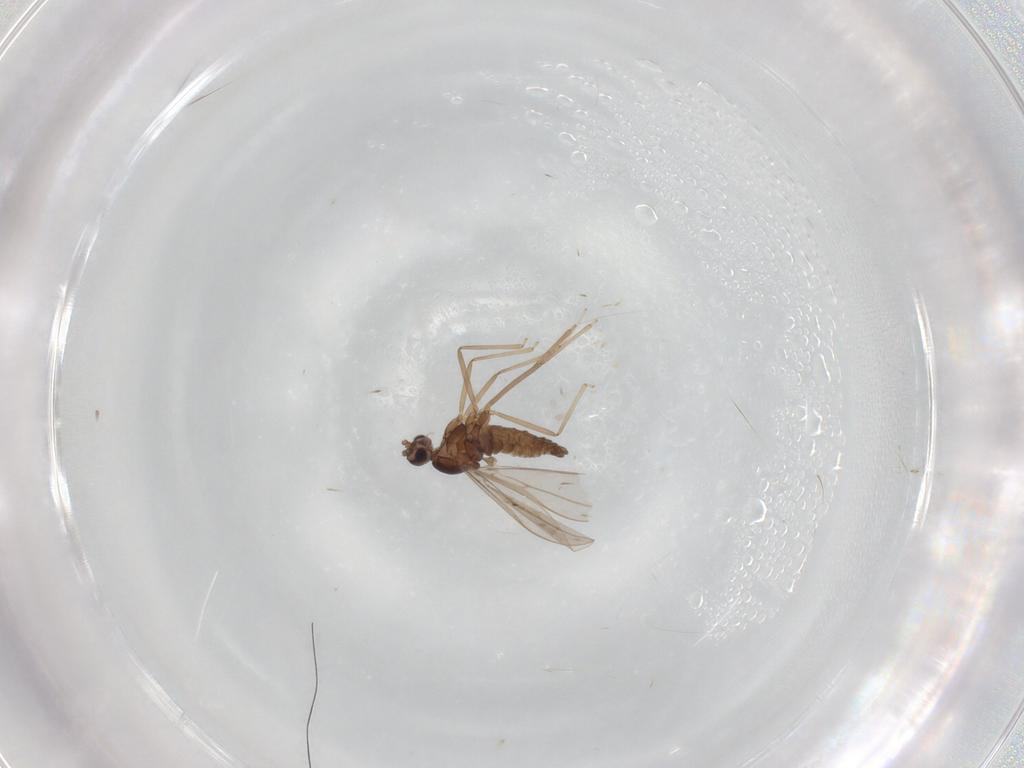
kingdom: Animalia
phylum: Arthropoda
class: Insecta
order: Diptera
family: Cecidomyiidae
